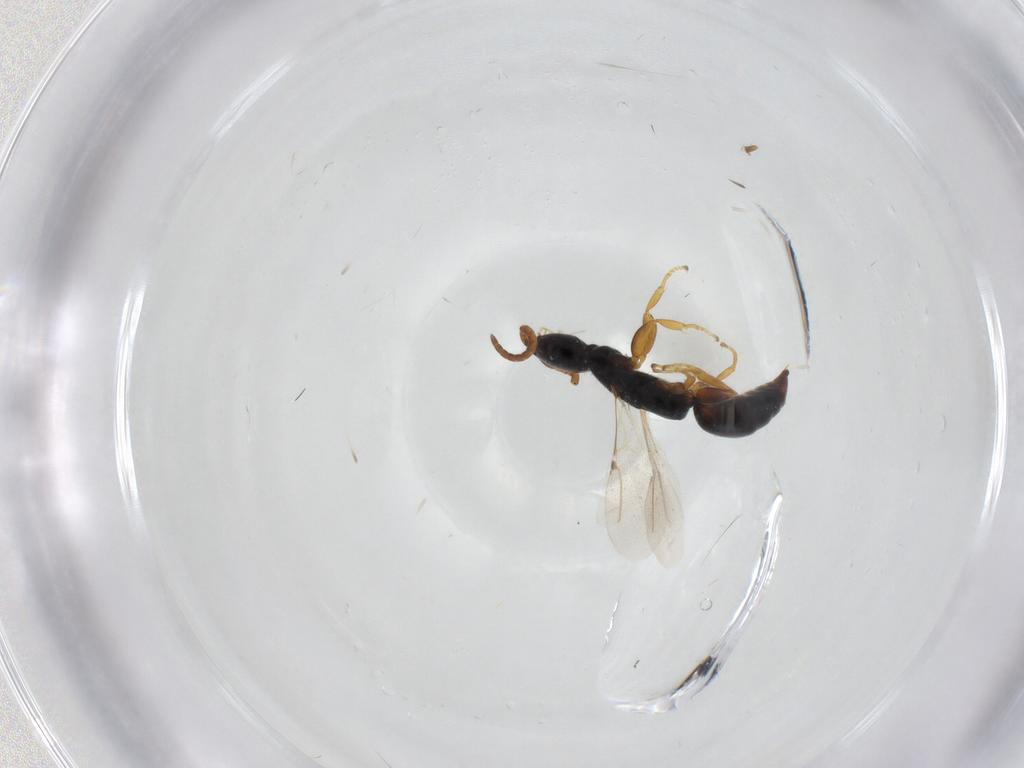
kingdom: Animalia
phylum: Arthropoda
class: Insecta
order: Hymenoptera
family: Bethylidae
